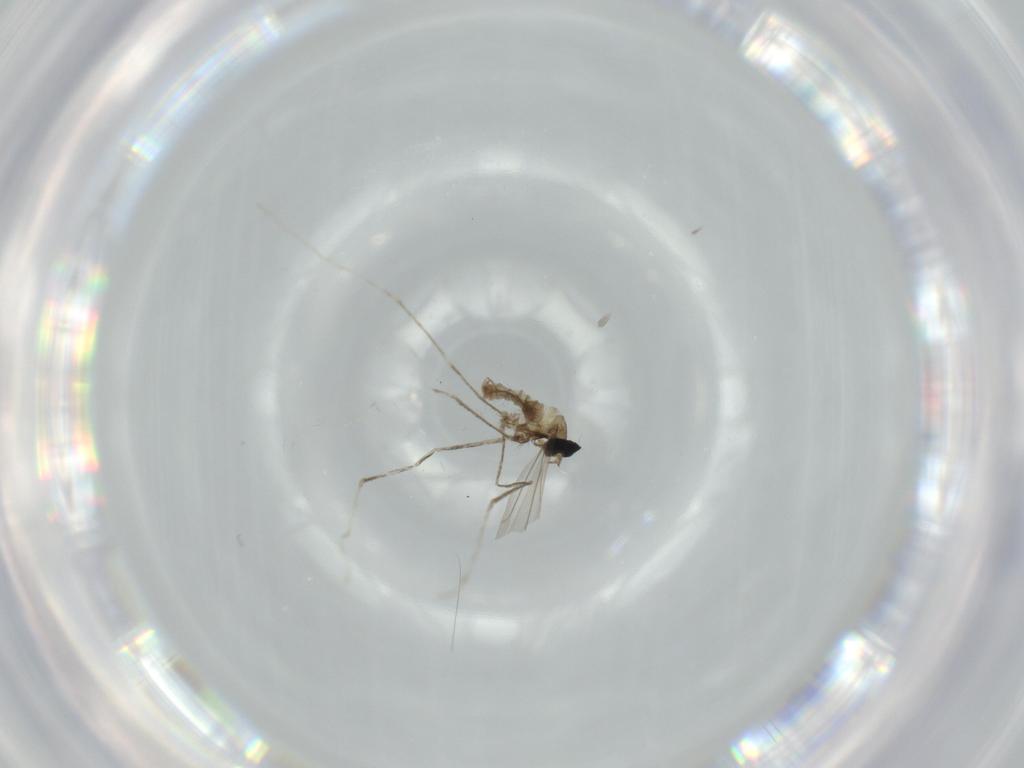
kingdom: Animalia
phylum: Arthropoda
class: Insecta
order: Diptera
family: Cecidomyiidae
